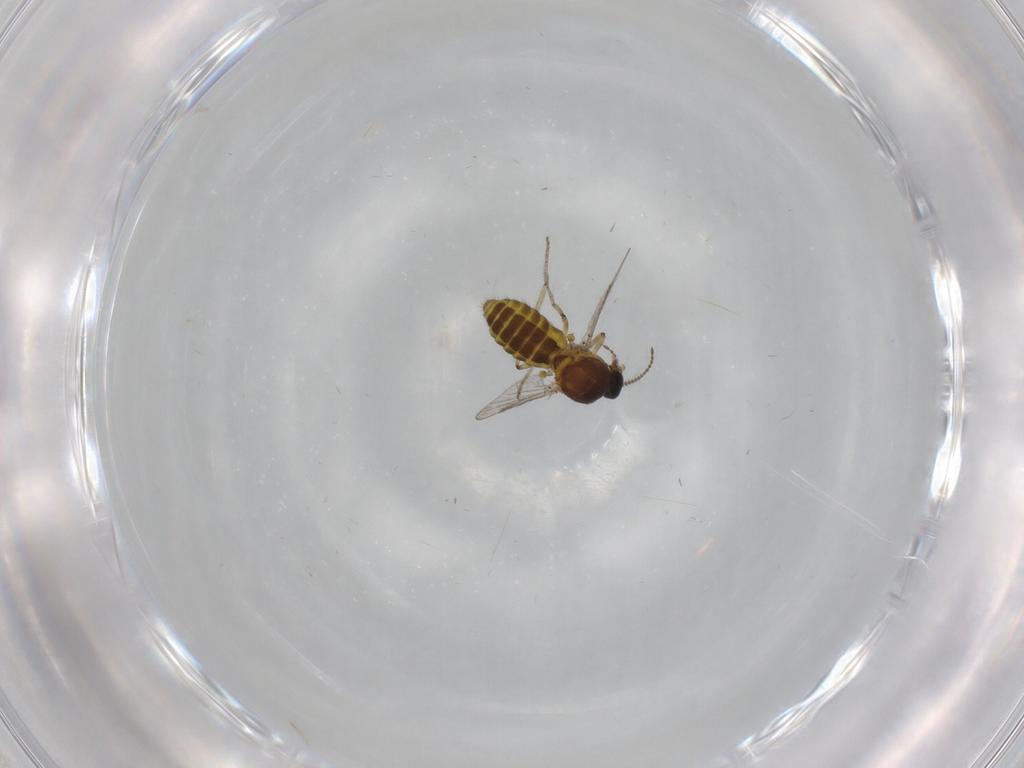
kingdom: Animalia
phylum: Arthropoda
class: Insecta
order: Diptera
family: Ceratopogonidae
